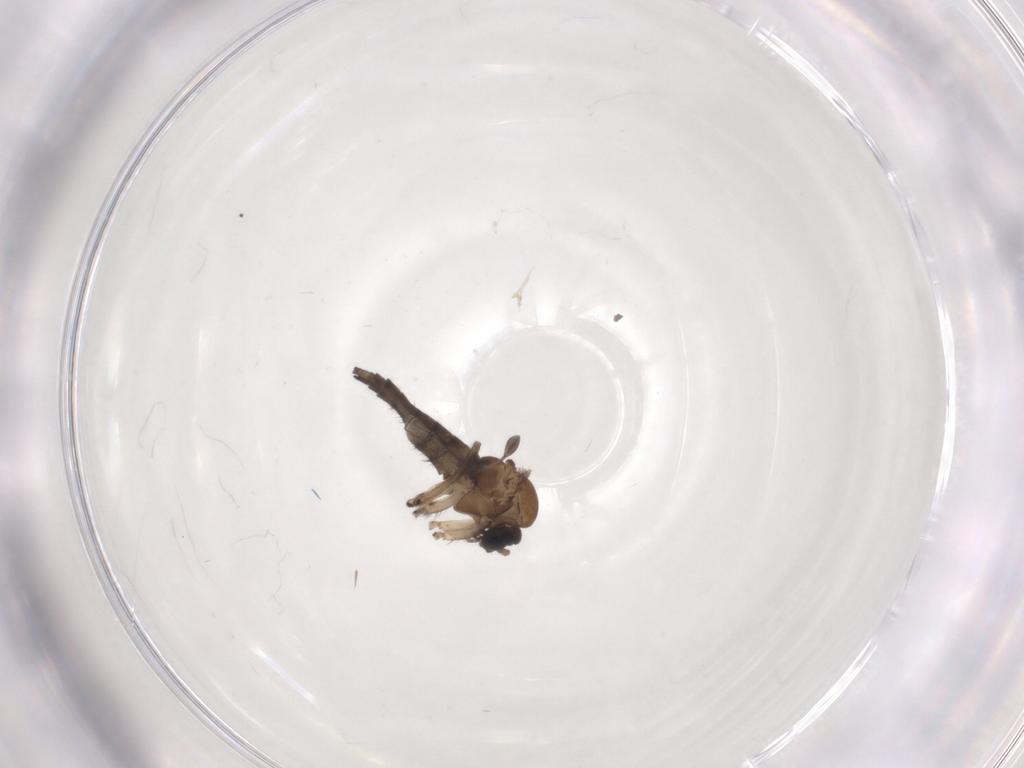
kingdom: Animalia
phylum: Arthropoda
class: Insecta
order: Diptera
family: Sciaridae
